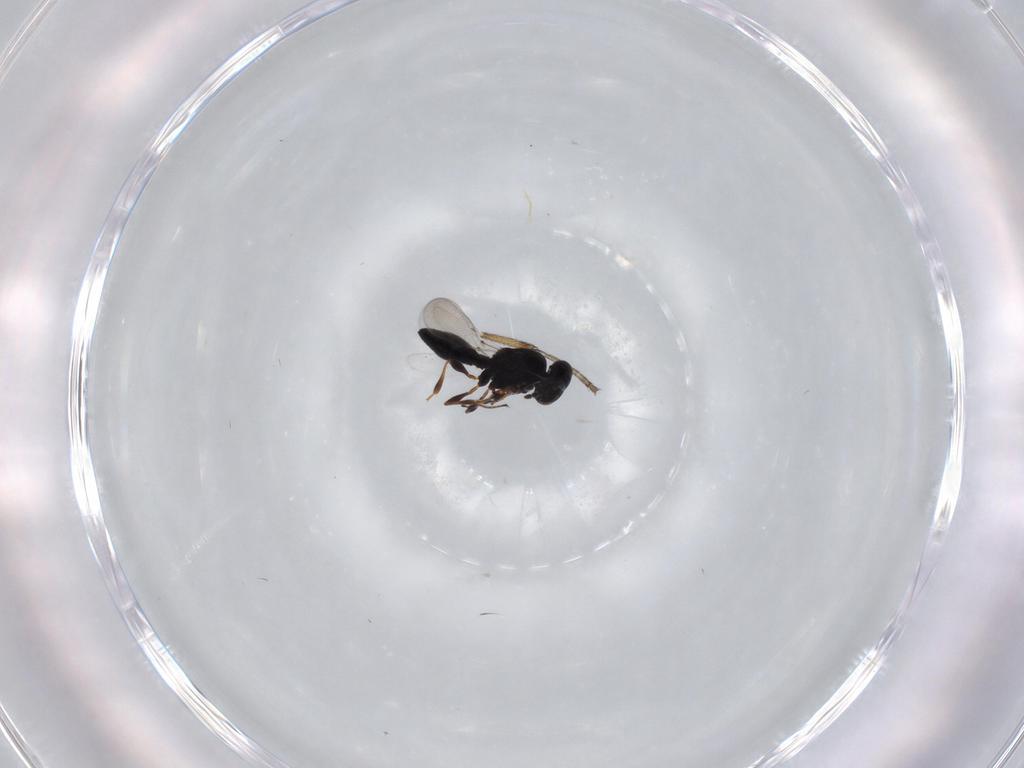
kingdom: Animalia
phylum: Arthropoda
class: Insecta
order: Hymenoptera
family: Platygastridae
